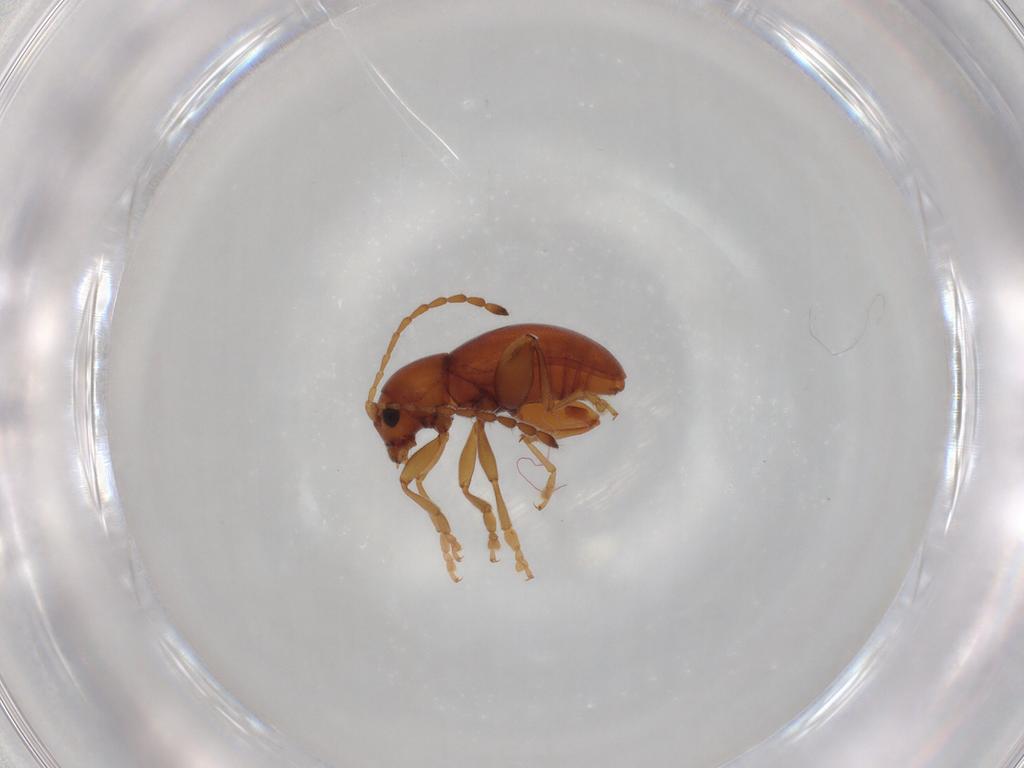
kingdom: Animalia
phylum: Arthropoda
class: Insecta
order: Coleoptera
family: Chrysomelidae
